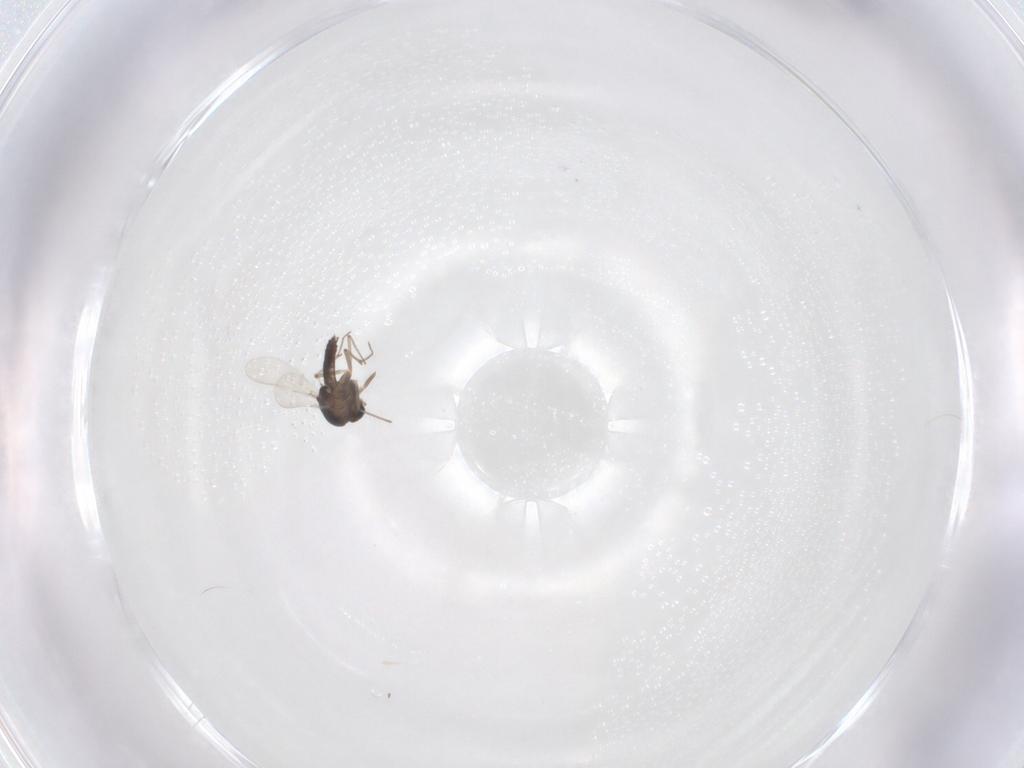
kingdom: Animalia
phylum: Arthropoda
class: Insecta
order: Diptera
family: Chironomidae
